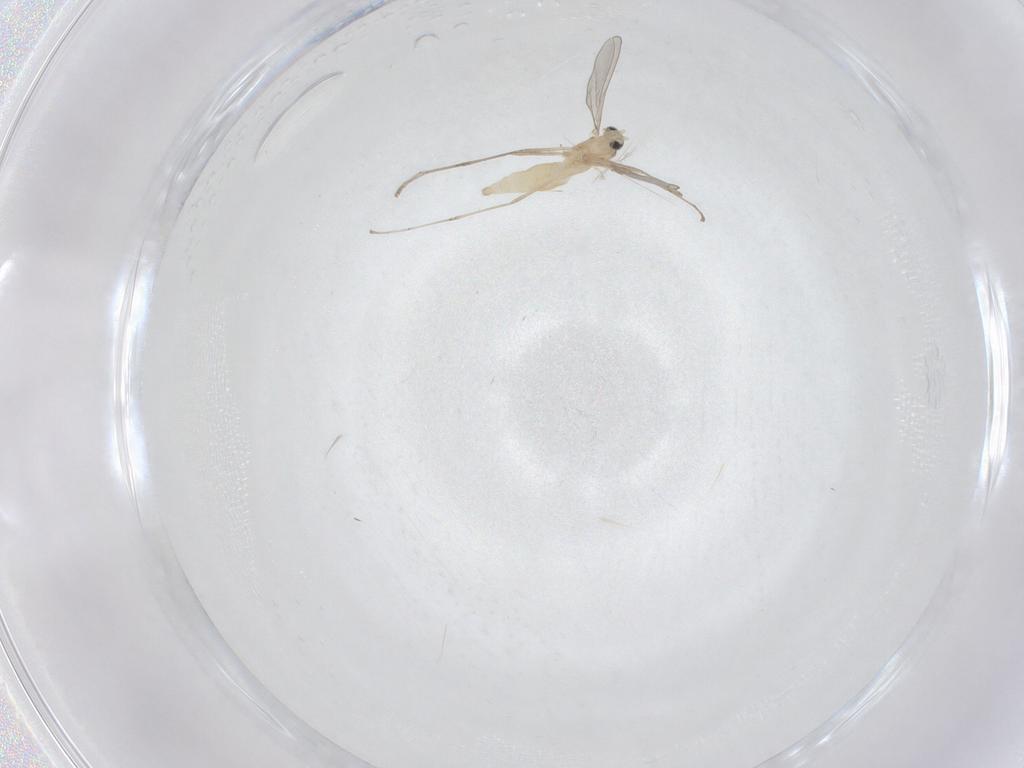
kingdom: Animalia
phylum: Arthropoda
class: Insecta
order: Diptera
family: Cecidomyiidae
